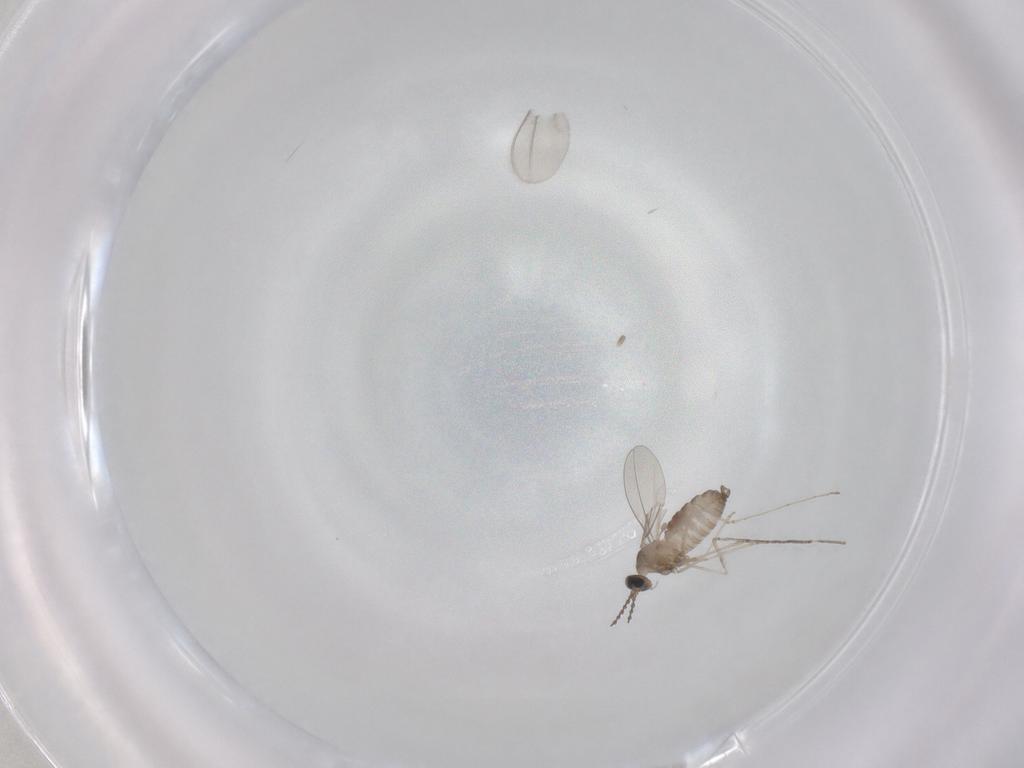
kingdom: Animalia
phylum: Arthropoda
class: Insecta
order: Diptera
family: Cecidomyiidae
